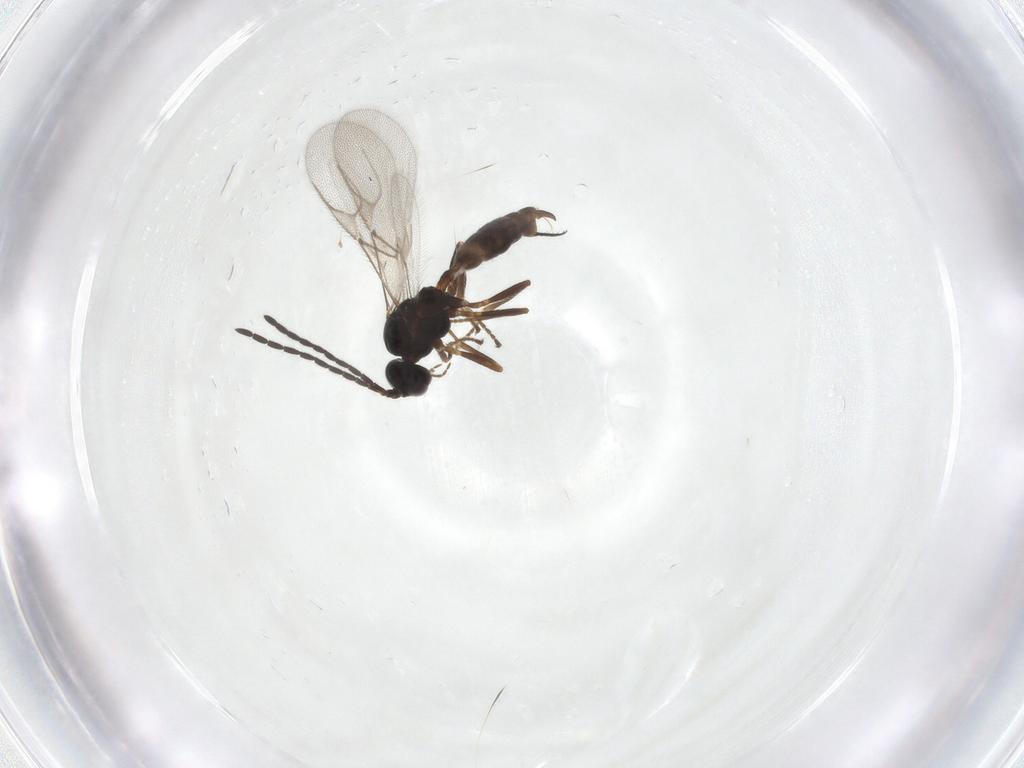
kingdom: Animalia
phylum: Arthropoda
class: Insecta
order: Hymenoptera
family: Braconidae
